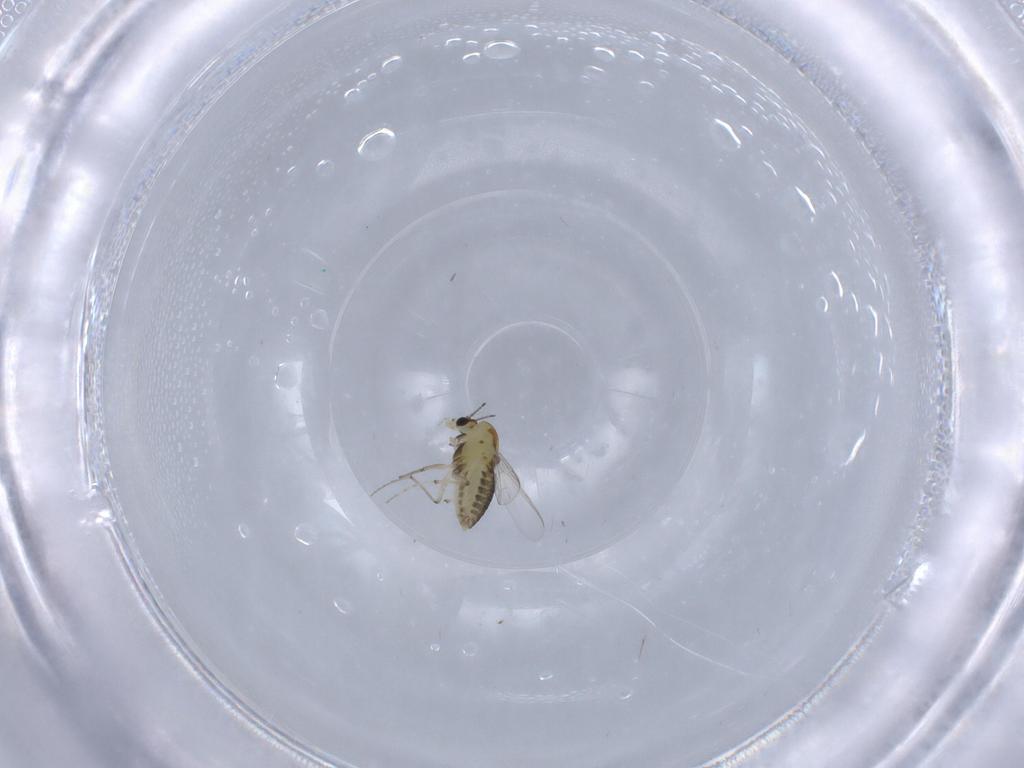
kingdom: Animalia
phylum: Arthropoda
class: Insecta
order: Diptera
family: Chironomidae
